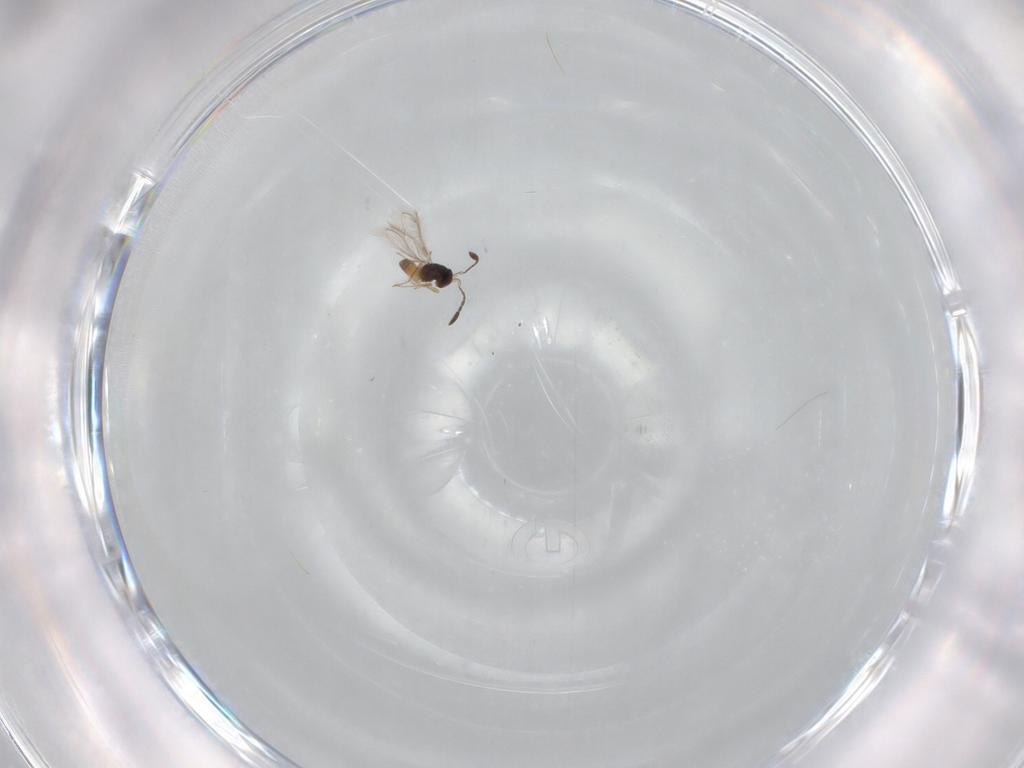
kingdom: Animalia
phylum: Arthropoda
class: Insecta
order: Hymenoptera
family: Mymaridae
